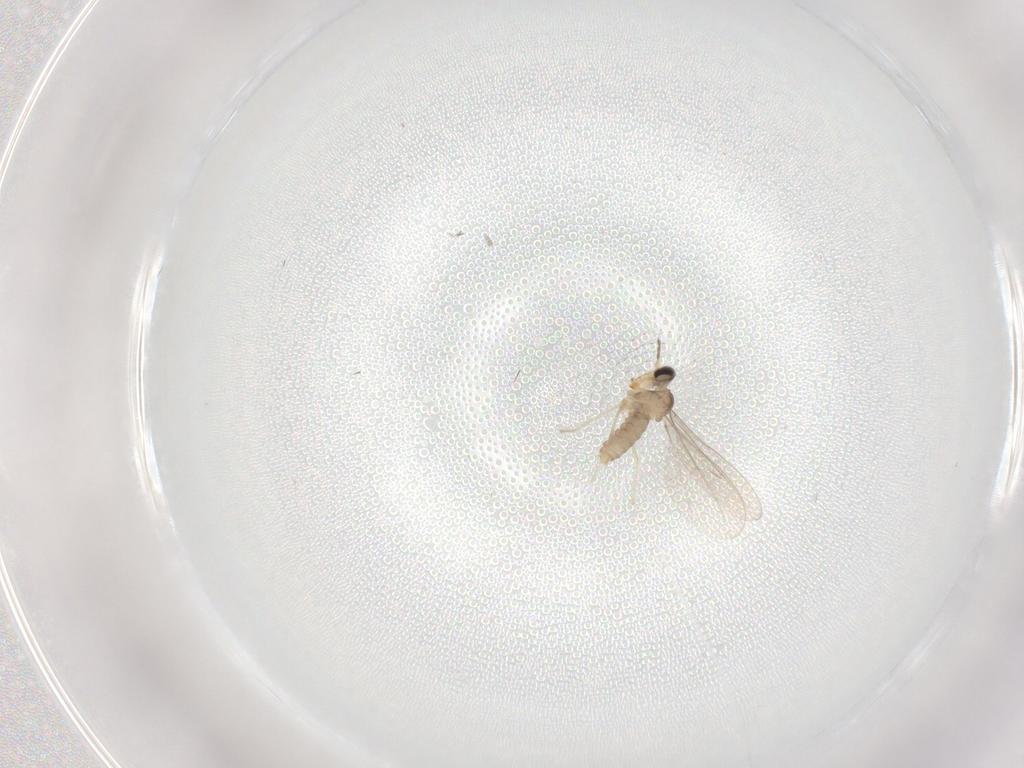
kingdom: Animalia
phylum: Arthropoda
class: Insecta
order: Diptera
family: Cecidomyiidae
